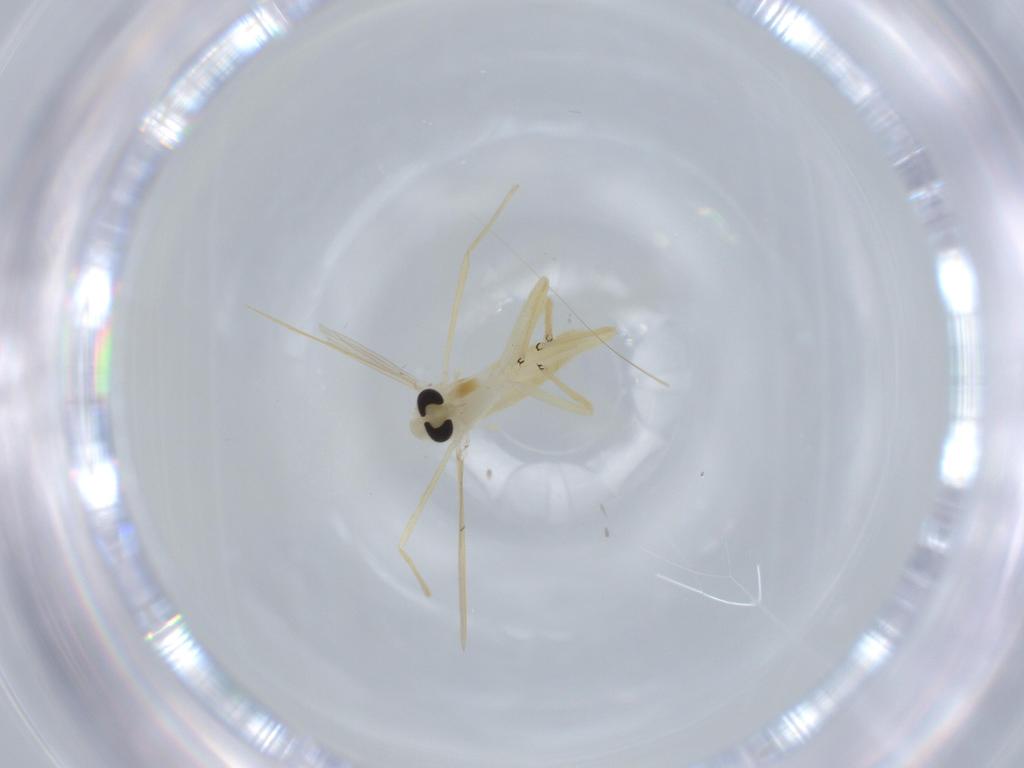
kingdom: Animalia
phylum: Arthropoda
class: Insecta
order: Diptera
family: Chironomidae
